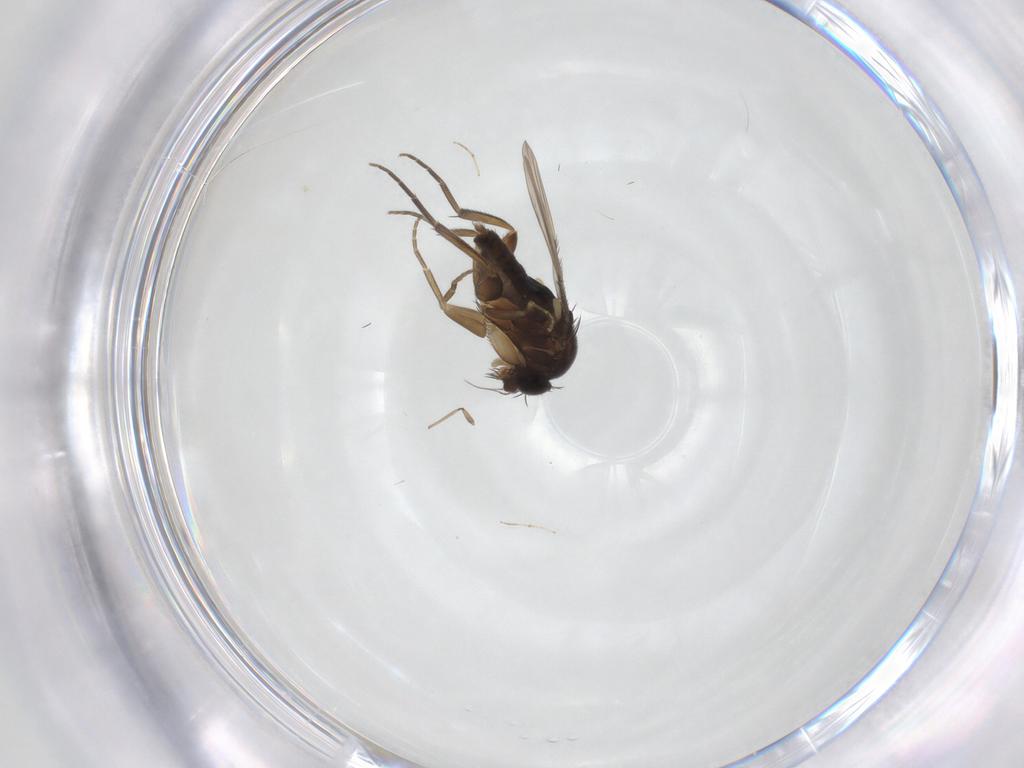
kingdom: Animalia
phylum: Arthropoda
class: Insecta
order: Diptera
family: Phoridae
